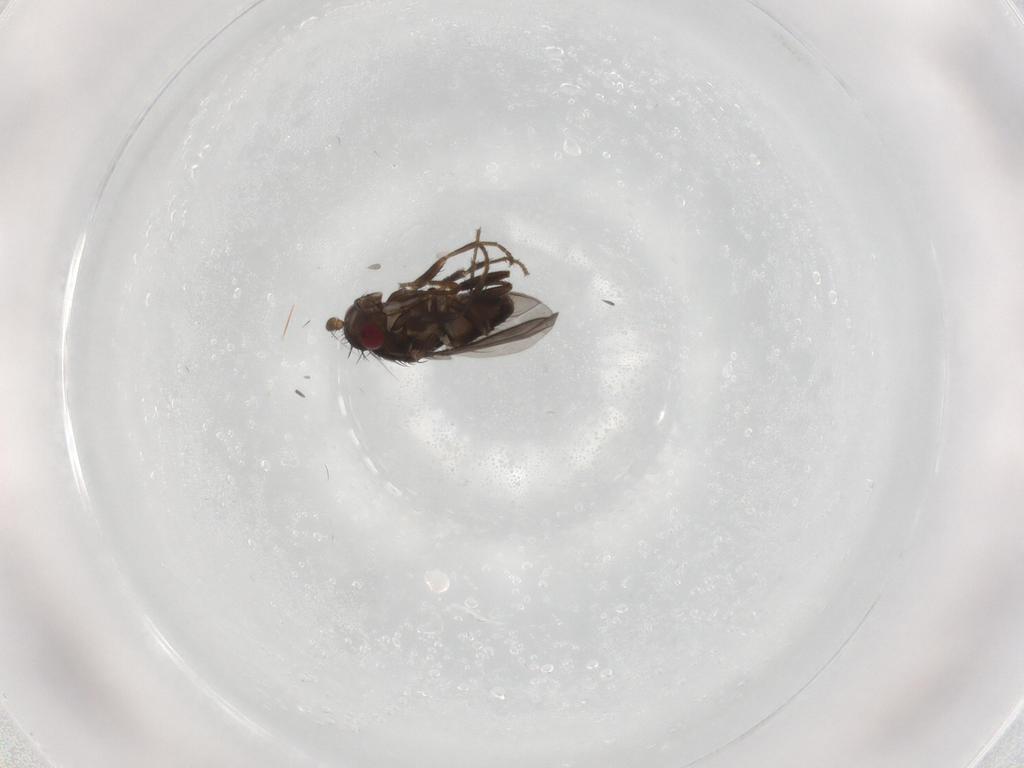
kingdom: Animalia
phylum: Arthropoda
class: Insecta
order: Diptera
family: Sphaeroceridae
